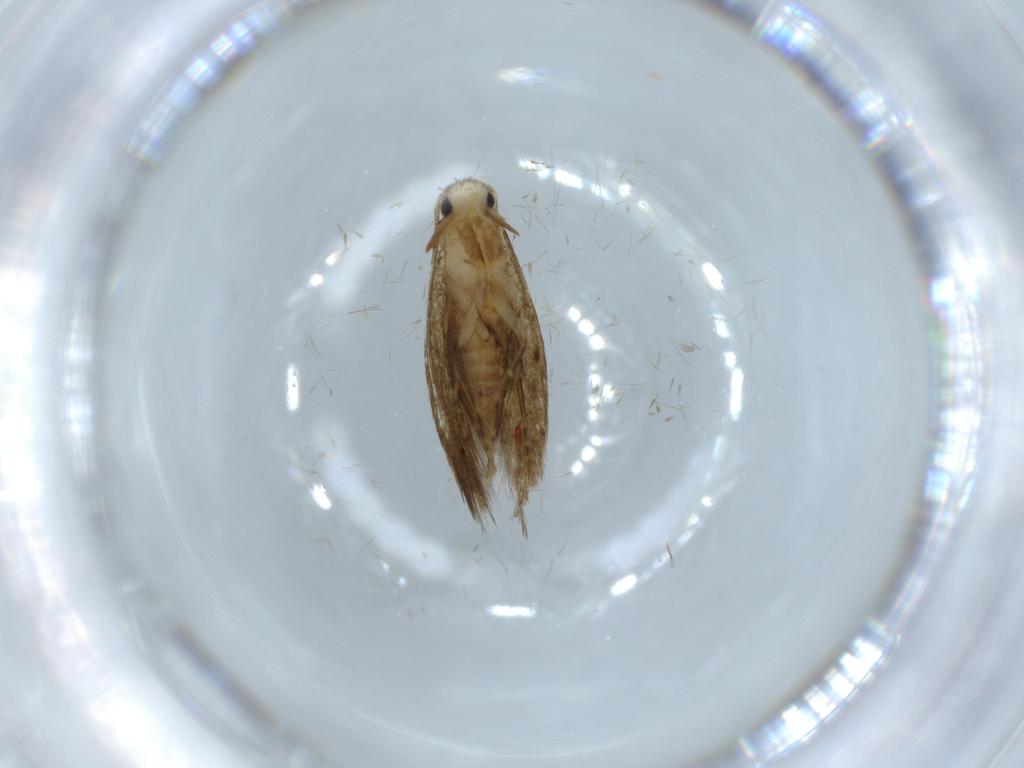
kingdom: Animalia
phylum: Arthropoda
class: Insecta
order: Lepidoptera
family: Tineidae
